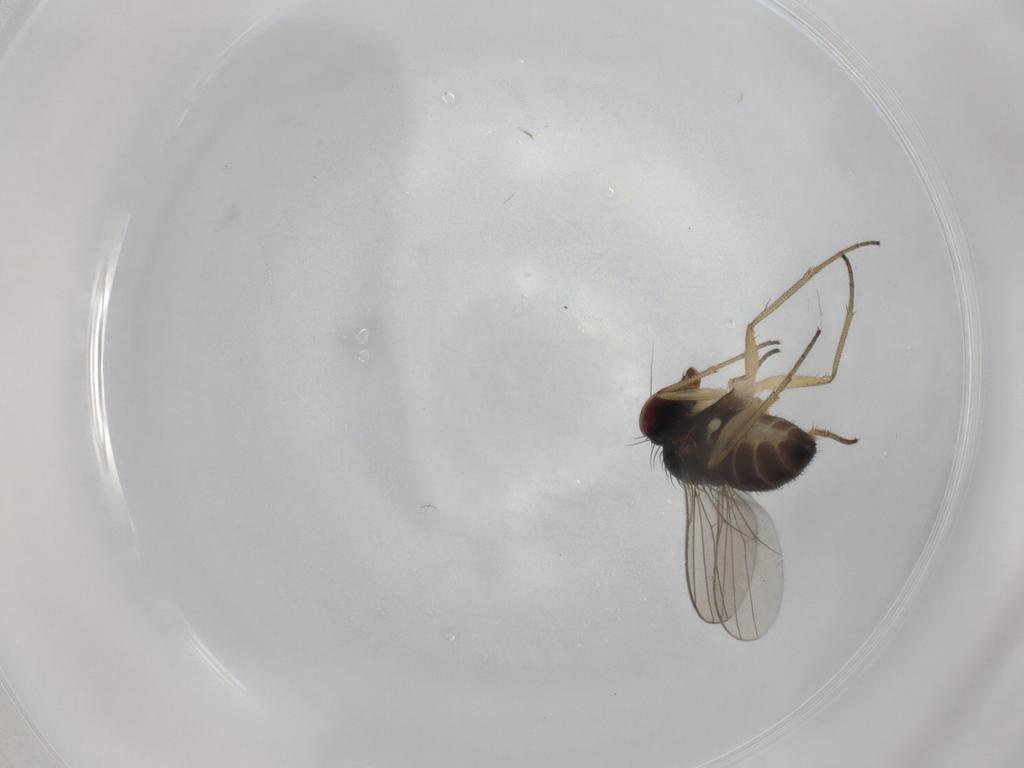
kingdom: Animalia
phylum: Arthropoda
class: Insecta
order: Diptera
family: Dolichopodidae
